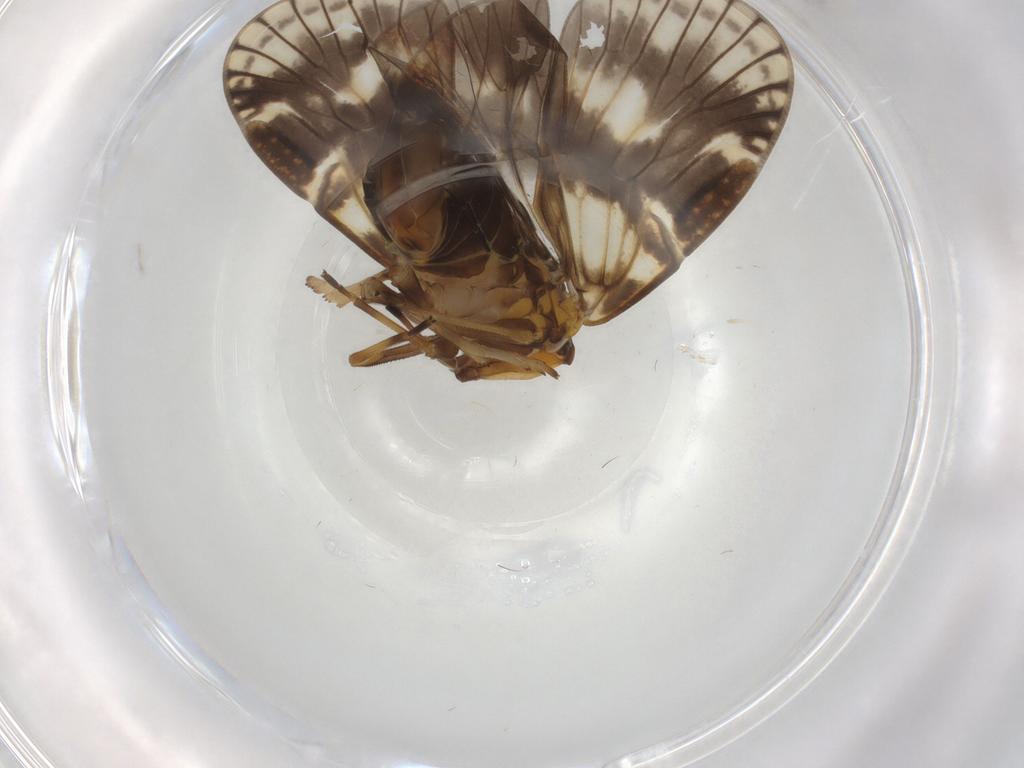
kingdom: Animalia
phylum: Arthropoda
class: Insecta
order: Hemiptera
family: Cixiidae
